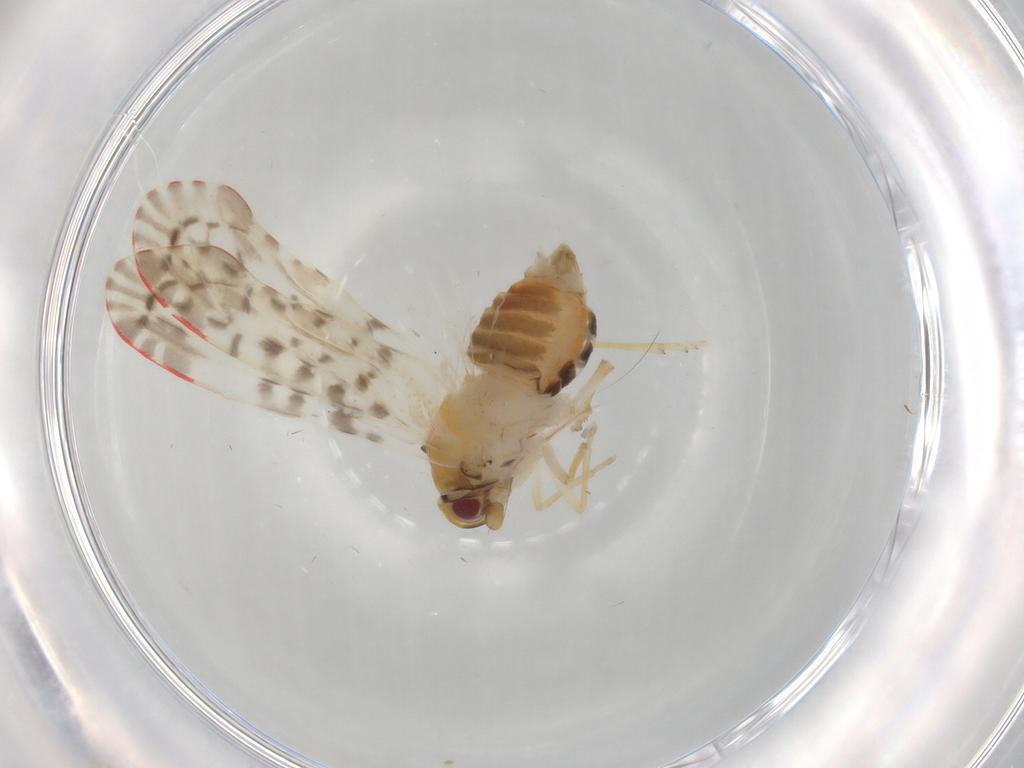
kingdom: Animalia
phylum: Arthropoda
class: Insecta
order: Hemiptera
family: Derbidae
